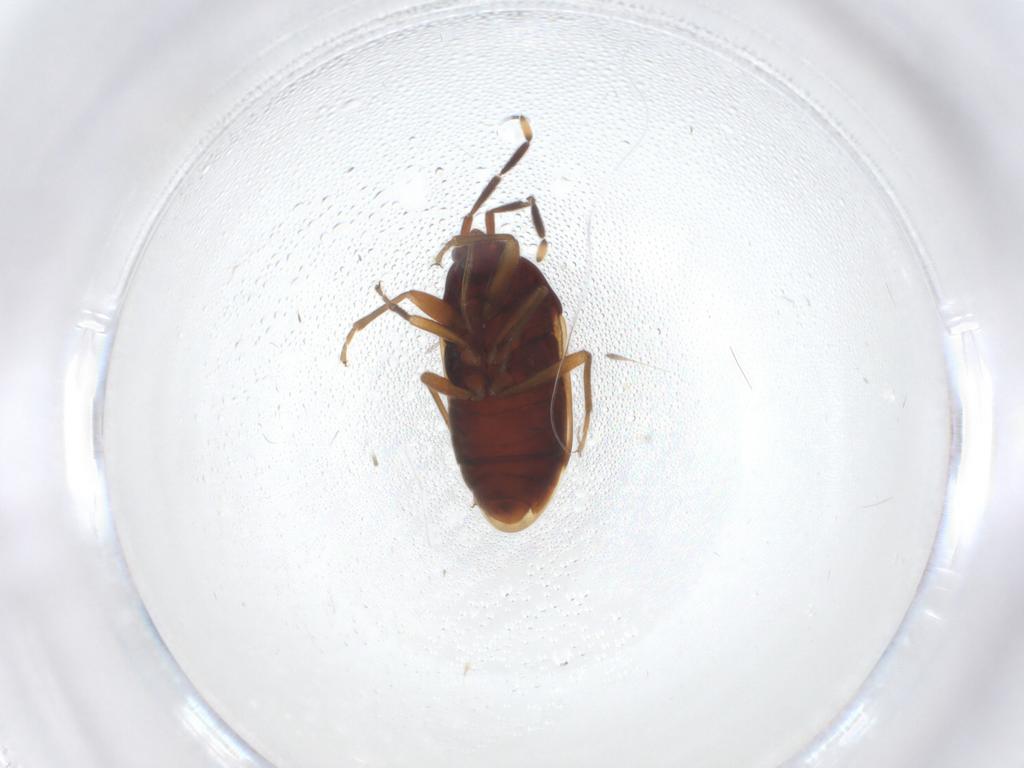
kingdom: Animalia
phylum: Arthropoda
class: Insecta
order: Hemiptera
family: Rhyparochromidae
